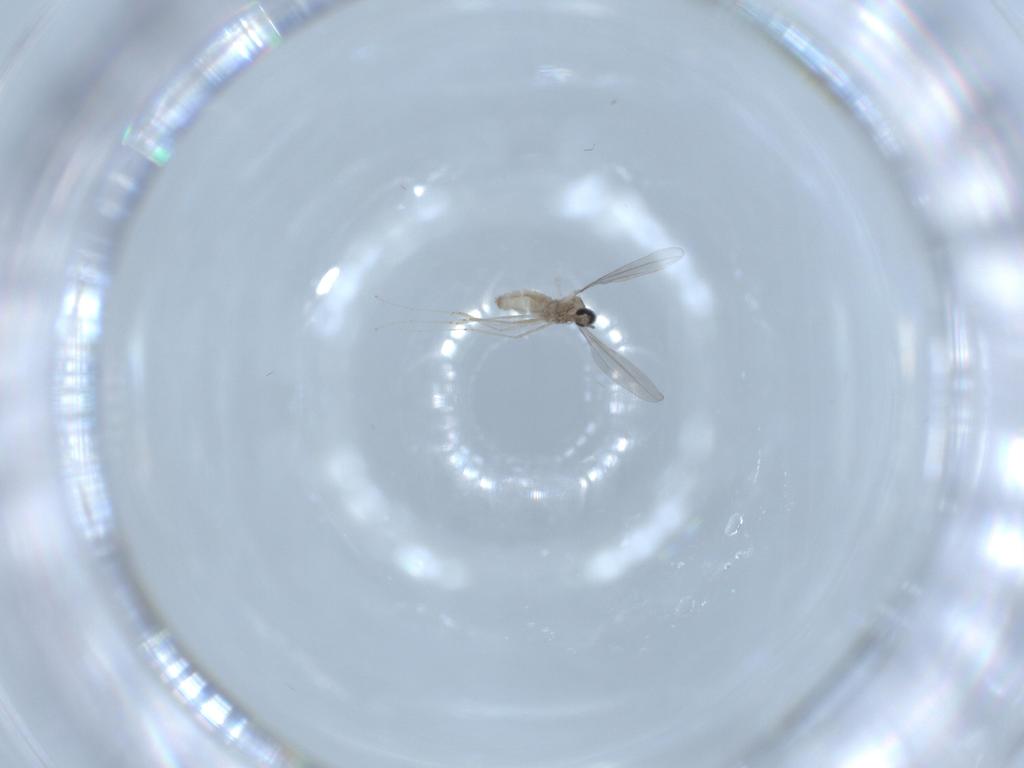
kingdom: Animalia
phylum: Arthropoda
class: Insecta
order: Diptera
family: Cecidomyiidae
